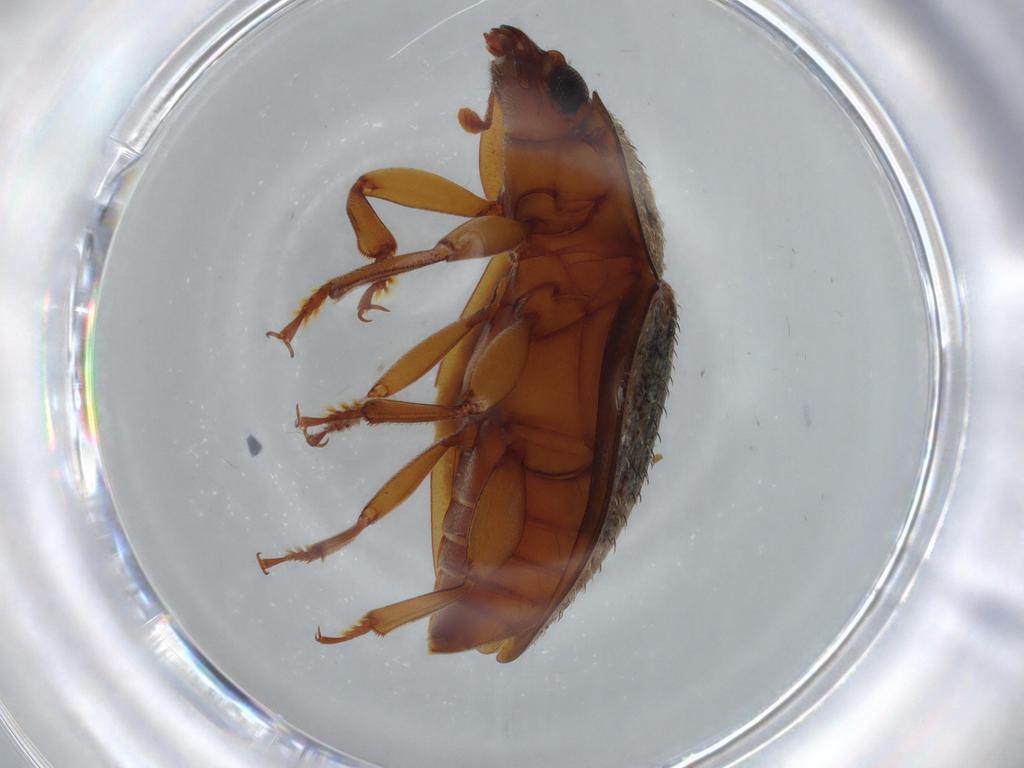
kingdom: Animalia
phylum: Arthropoda
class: Insecta
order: Coleoptera
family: Nitidulidae
